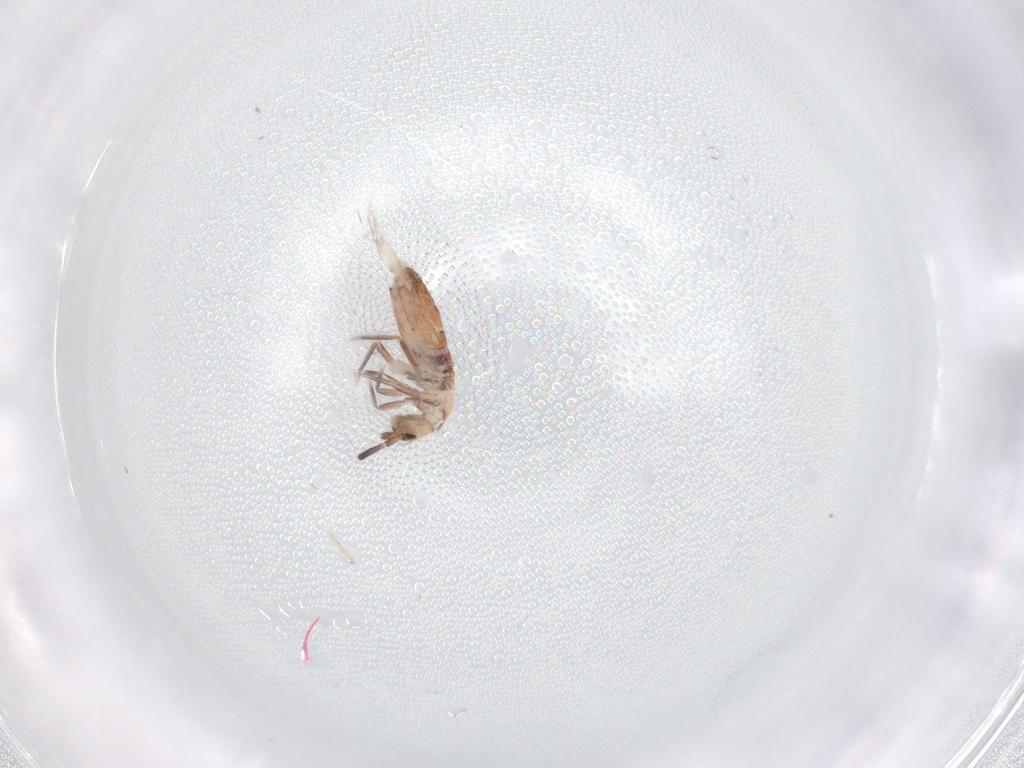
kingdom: Animalia
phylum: Arthropoda
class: Collembola
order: Entomobryomorpha
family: Entomobryidae
